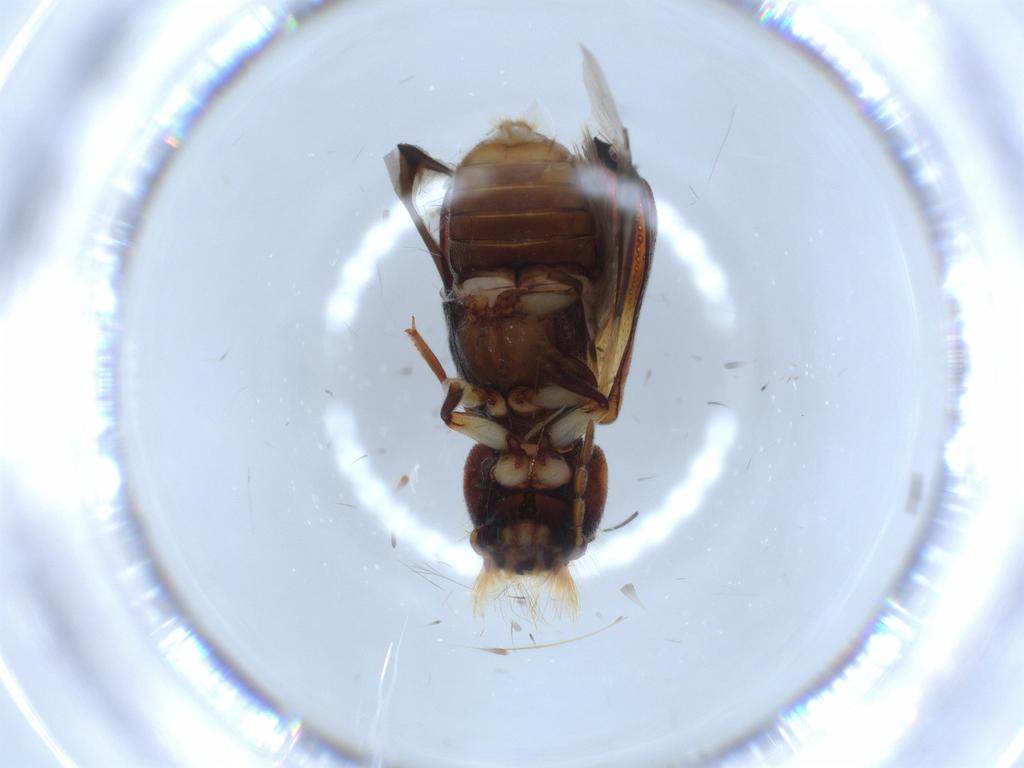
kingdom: Animalia
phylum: Arthropoda
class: Insecta
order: Coleoptera
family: Bostrichidae
